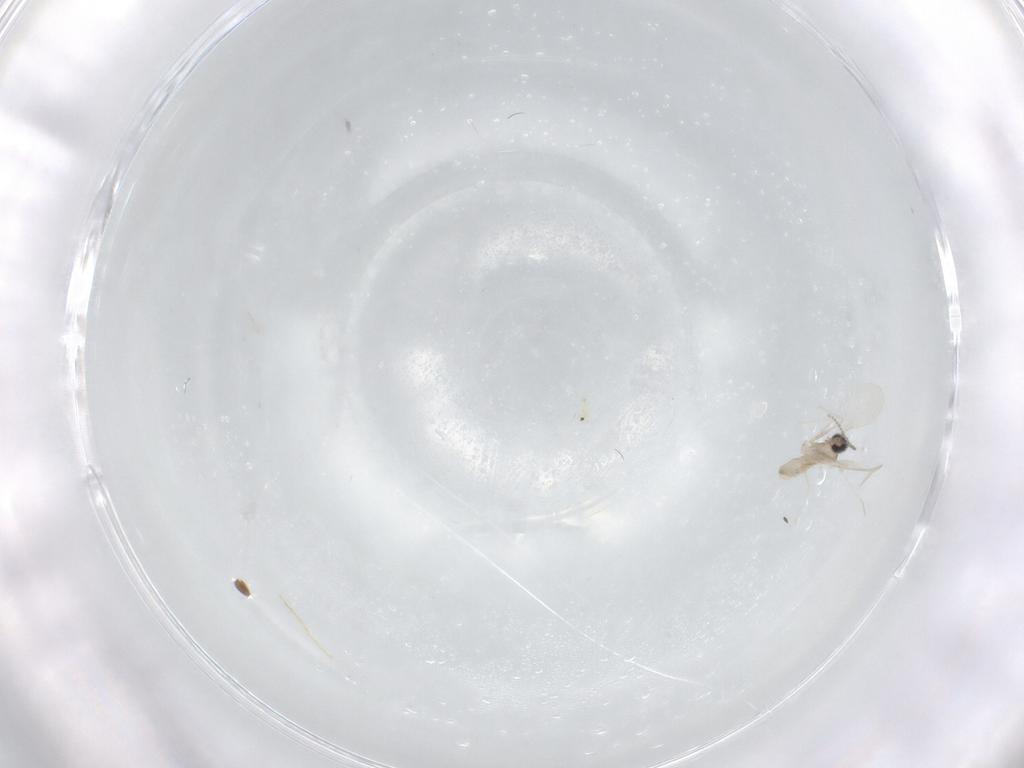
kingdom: Animalia
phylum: Arthropoda
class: Insecta
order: Diptera
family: Cecidomyiidae
